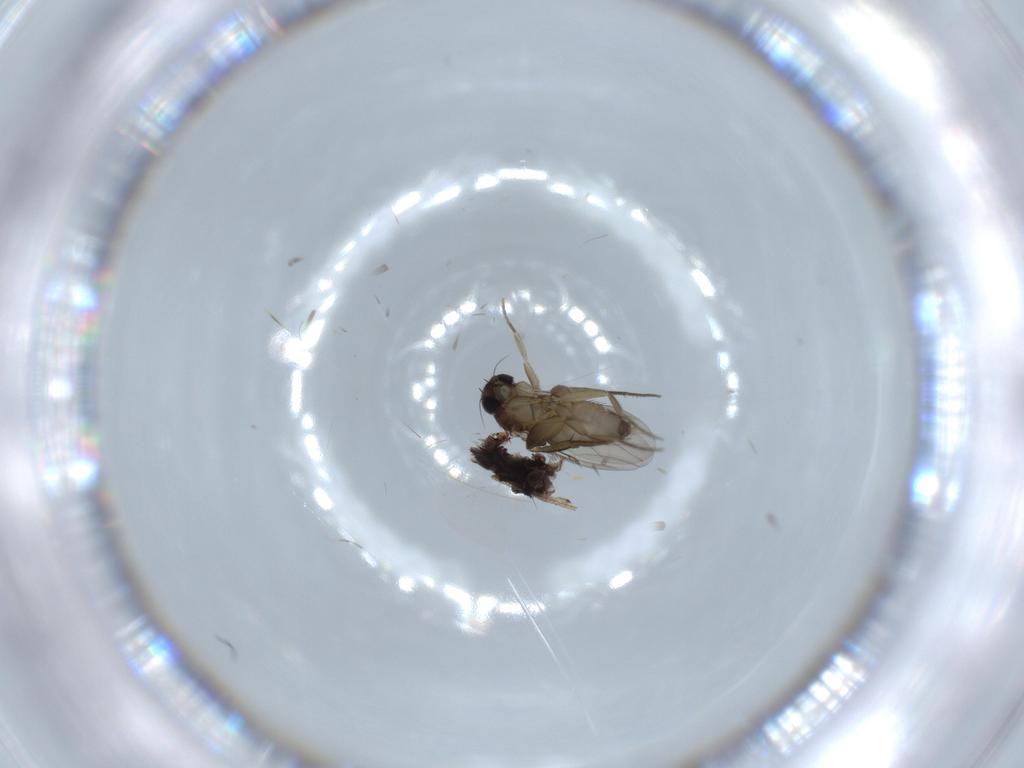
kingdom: Animalia
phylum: Arthropoda
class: Insecta
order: Diptera
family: Phoridae
